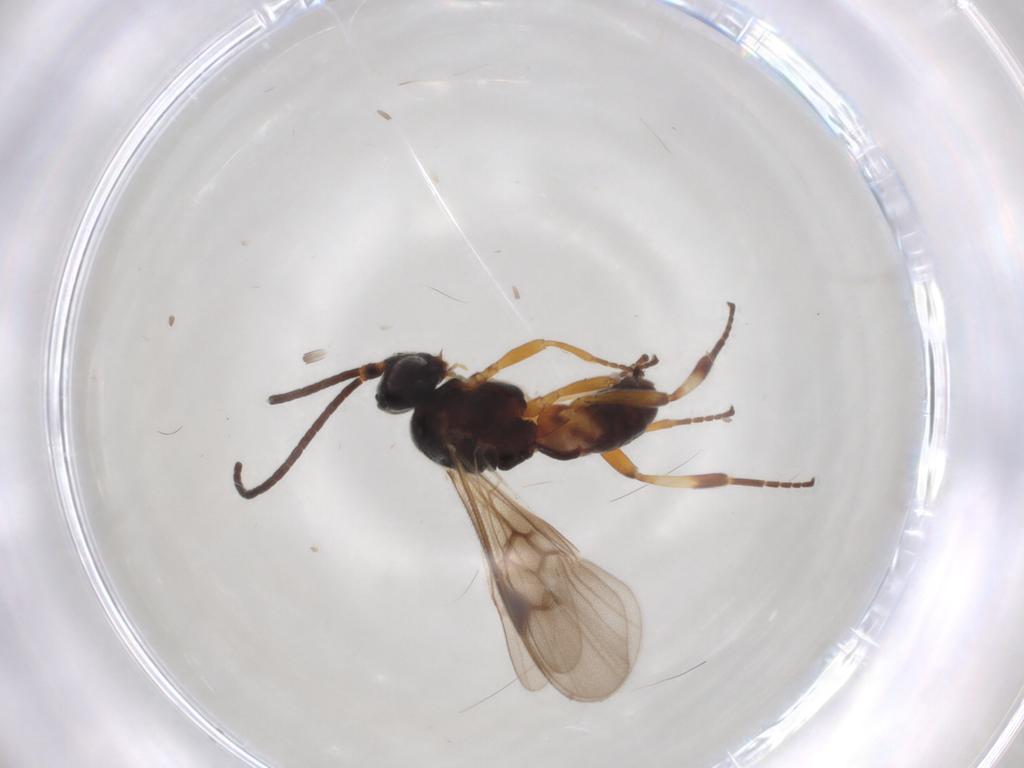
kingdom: Animalia
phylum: Arthropoda
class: Insecta
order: Hymenoptera
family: Braconidae
